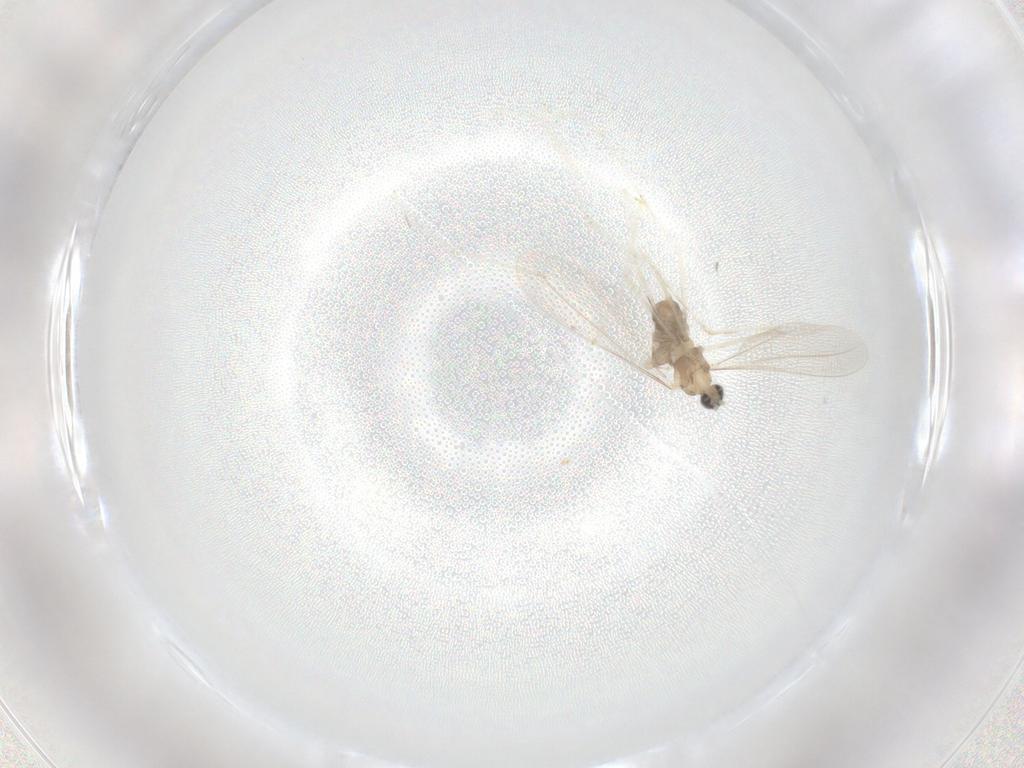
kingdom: Animalia
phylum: Arthropoda
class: Insecta
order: Diptera
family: Cecidomyiidae
